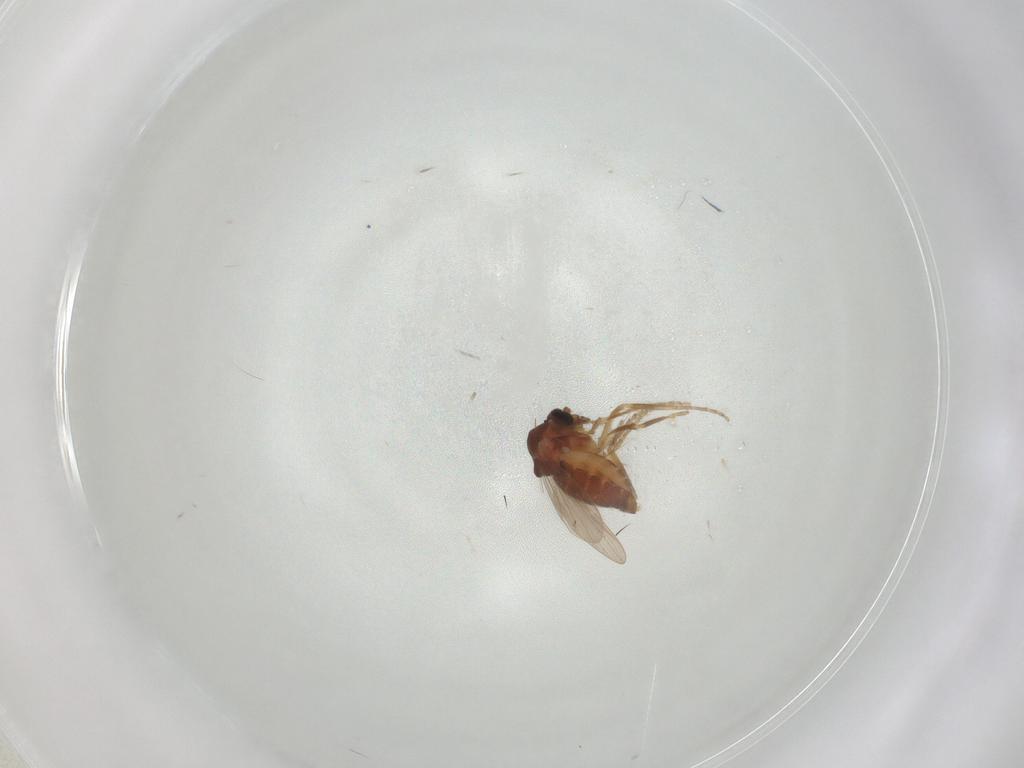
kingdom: Animalia
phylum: Arthropoda
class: Insecta
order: Diptera
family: Ceratopogonidae
